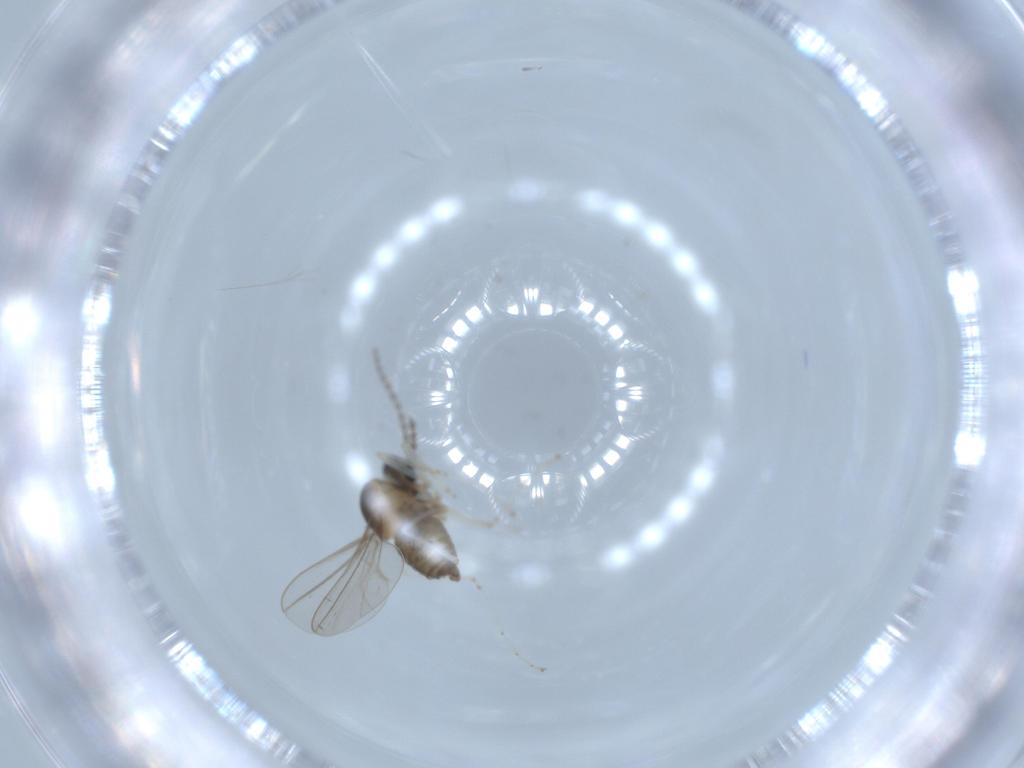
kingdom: Animalia
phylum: Arthropoda
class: Insecta
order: Diptera
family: Cecidomyiidae
